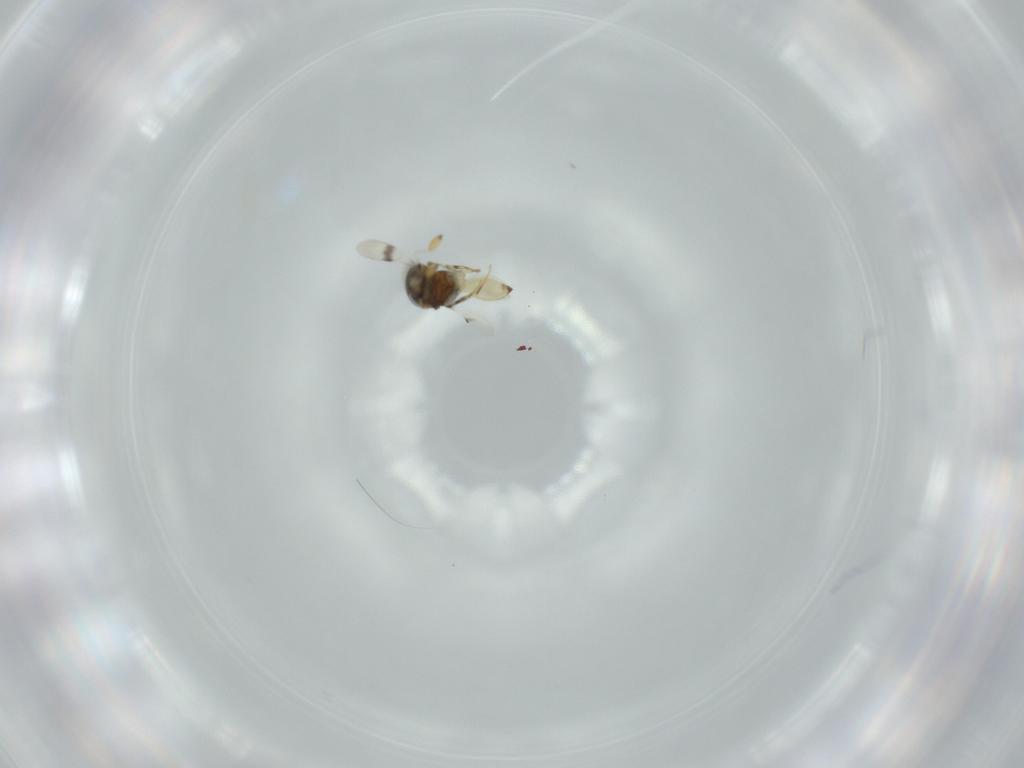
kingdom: Animalia
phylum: Arthropoda
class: Insecta
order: Hymenoptera
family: Scelionidae
